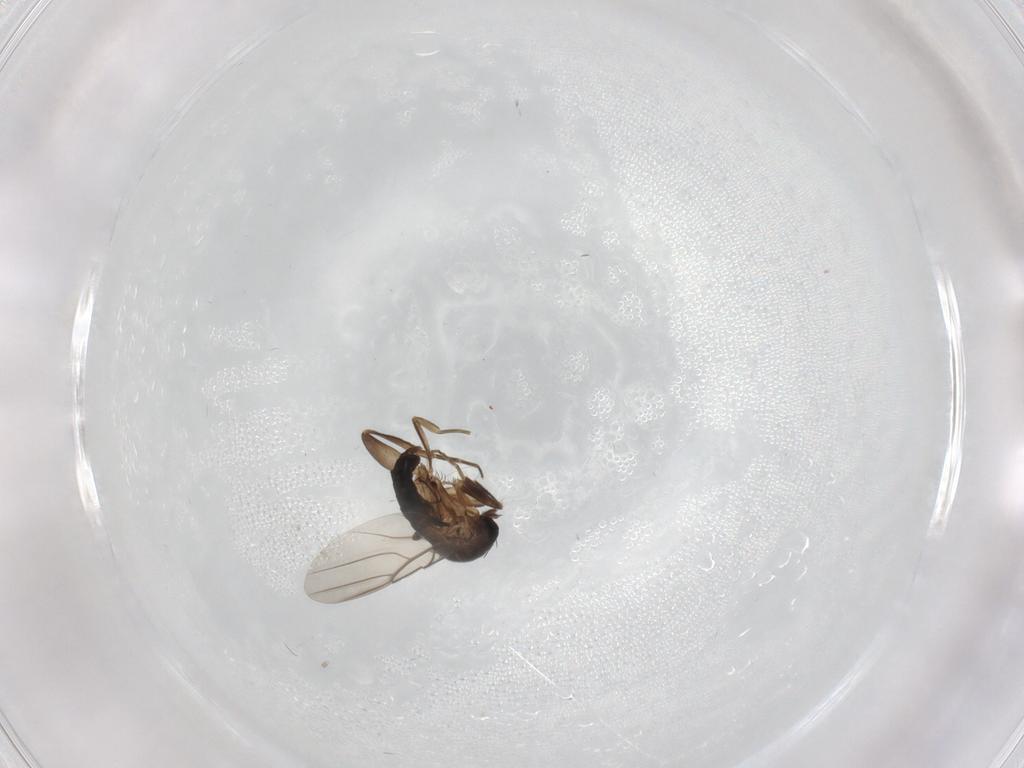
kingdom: Animalia
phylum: Arthropoda
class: Insecta
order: Diptera
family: Phoridae
